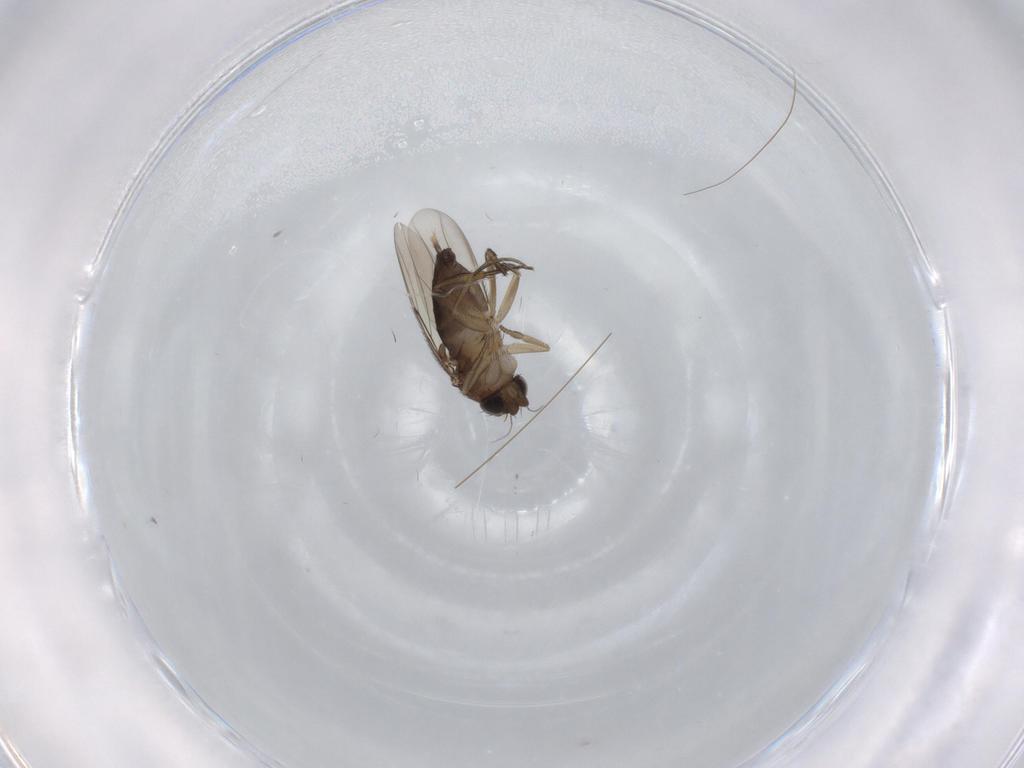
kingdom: Animalia
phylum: Arthropoda
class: Insecta
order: Diptera
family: Phoridae
